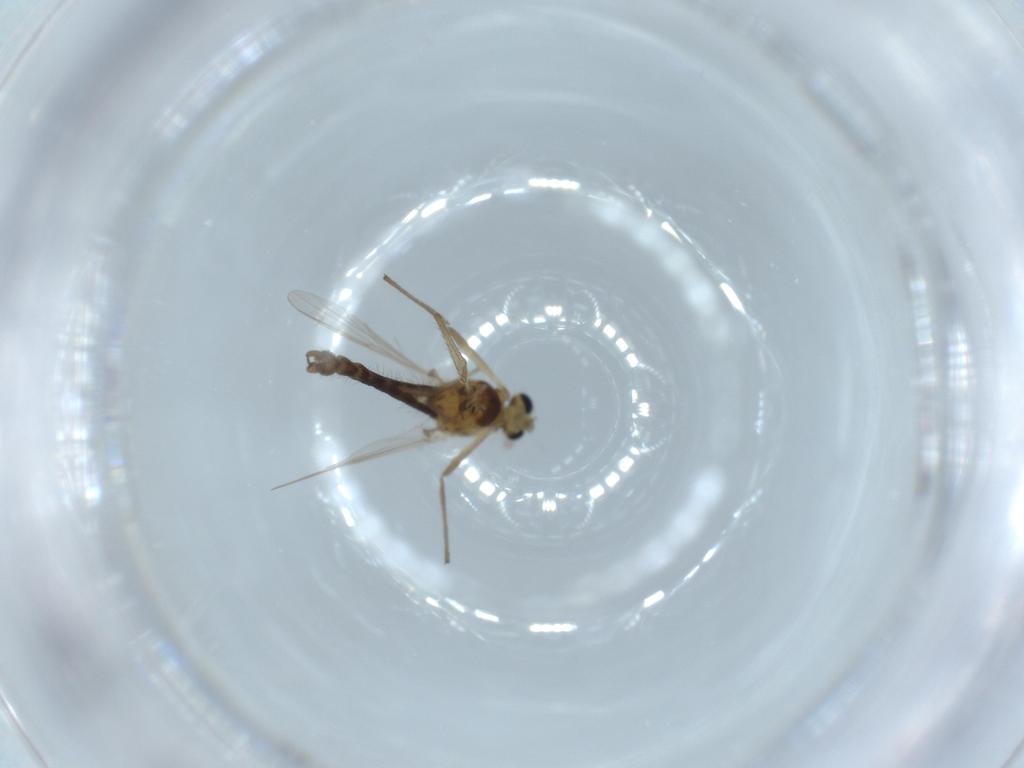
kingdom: Animalia
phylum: Arthropoda
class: Insecta
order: Diptera
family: Chironomidae
